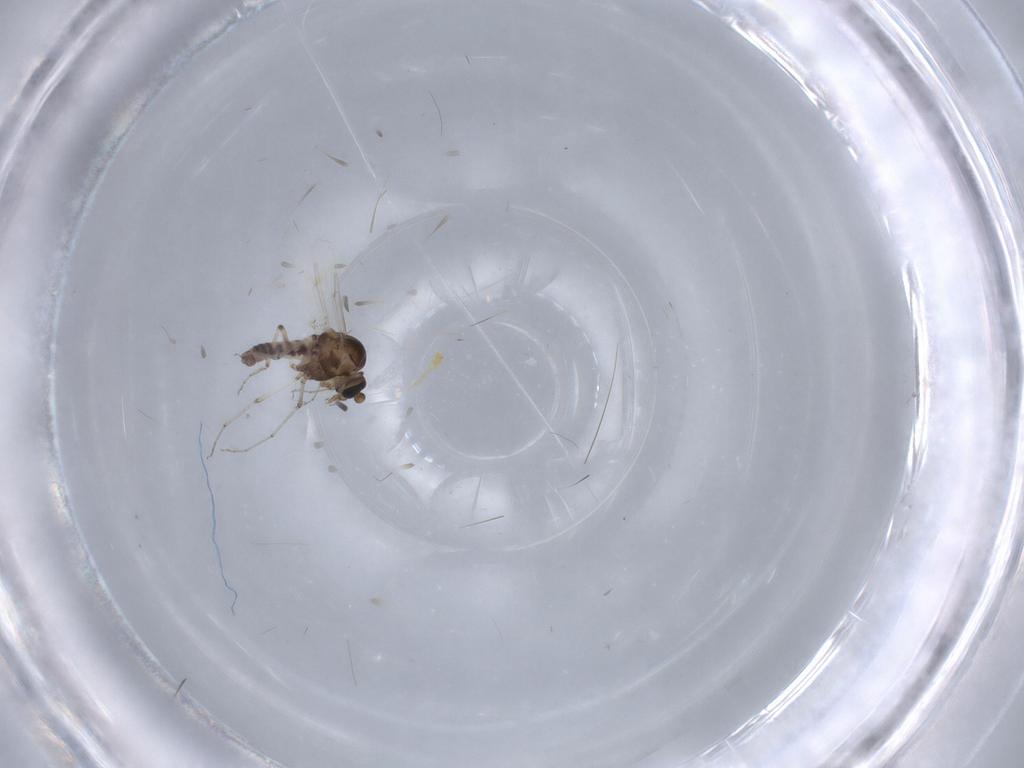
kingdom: Animalia
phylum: Arthropoda
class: Insecta
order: Diptera
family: Ceratopogonidae
